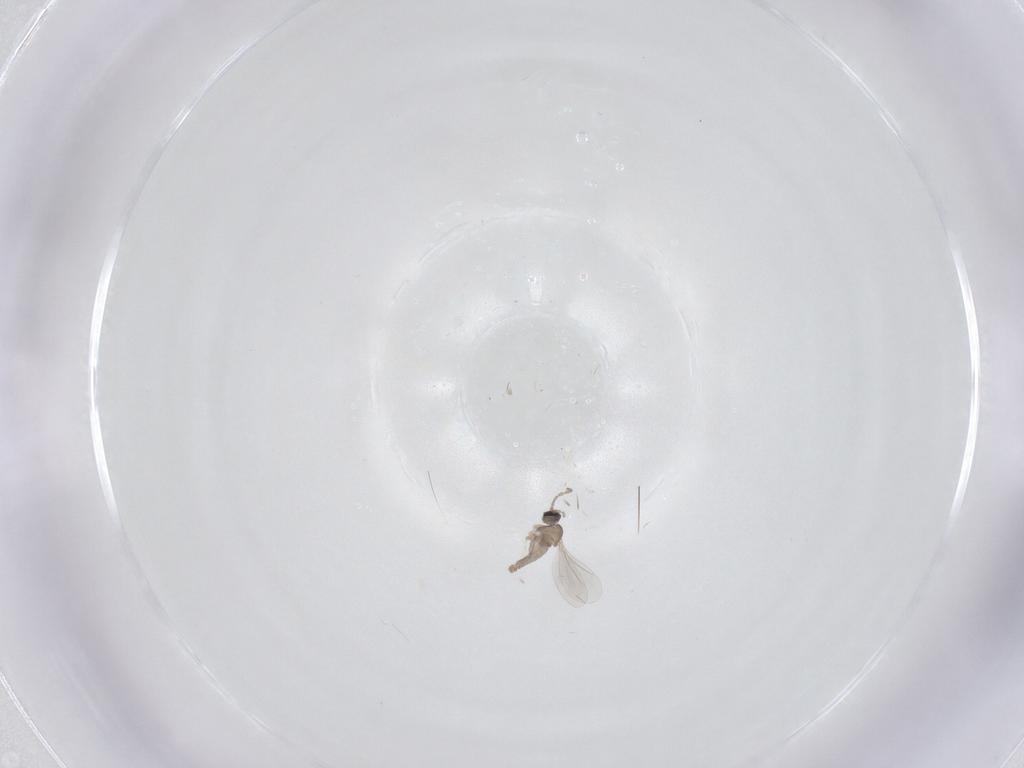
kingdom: Animalia
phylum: Arthropoda
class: Insecta
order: Diptera
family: Cecidomyiidae
